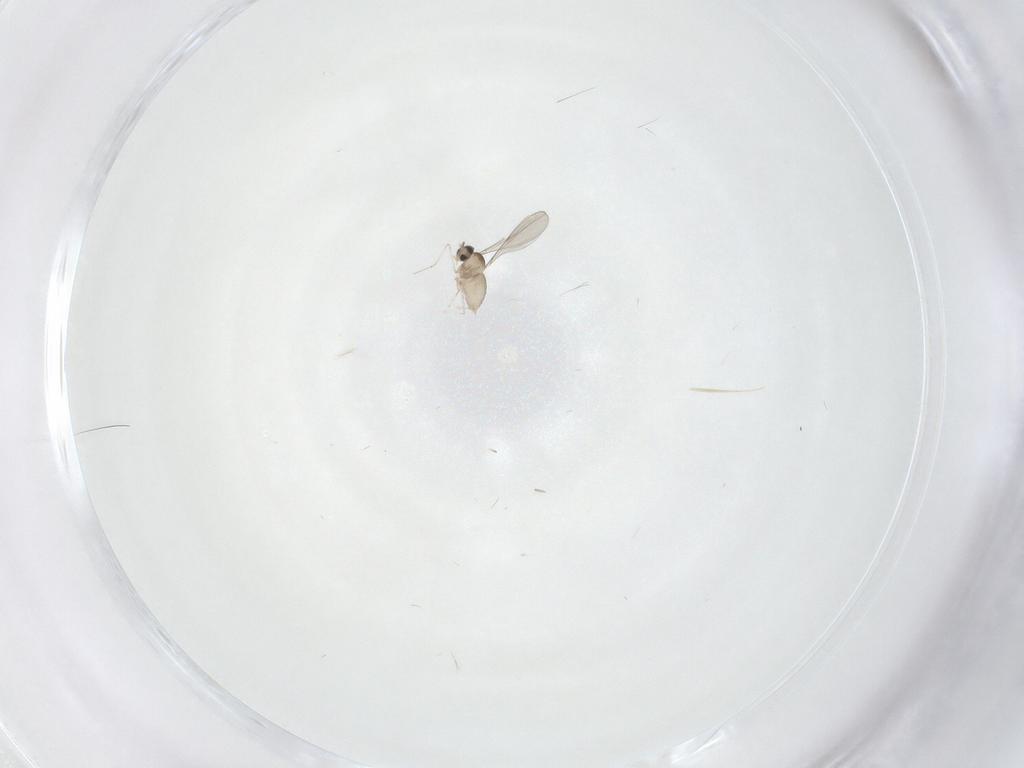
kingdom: Animalia
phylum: Arthropoda
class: Insecta
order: Diptera
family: Cecidomyiidae
